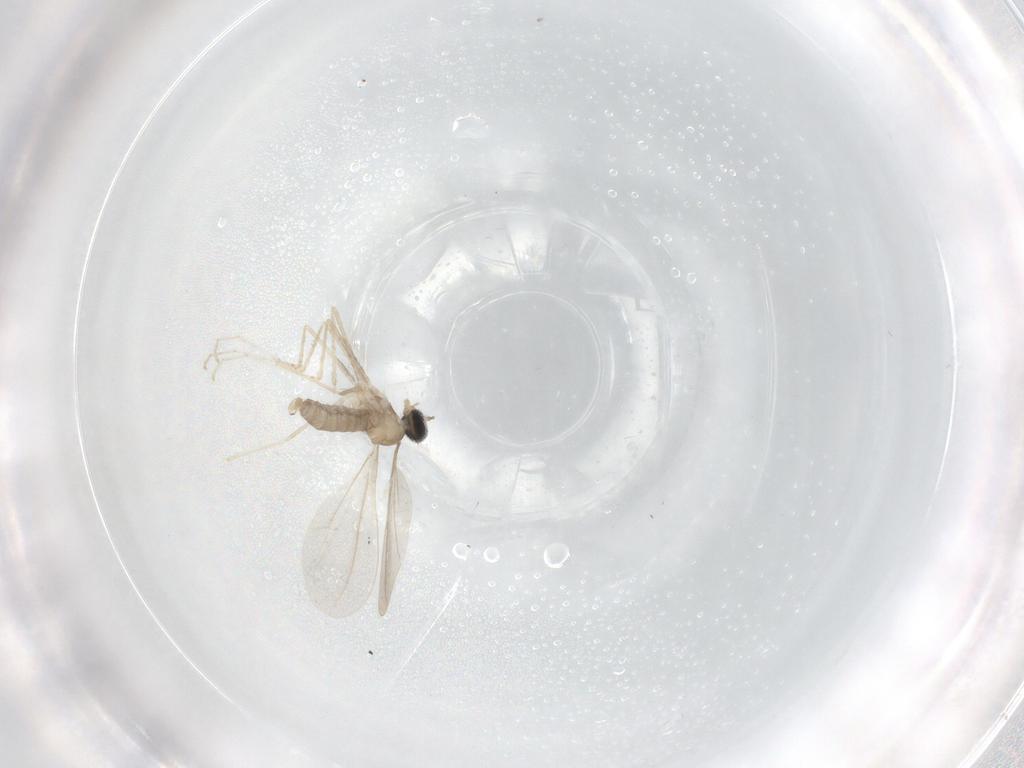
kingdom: Animalia
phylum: Arthropoda
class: Insecta
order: Diptera
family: Cecidomyiidae
